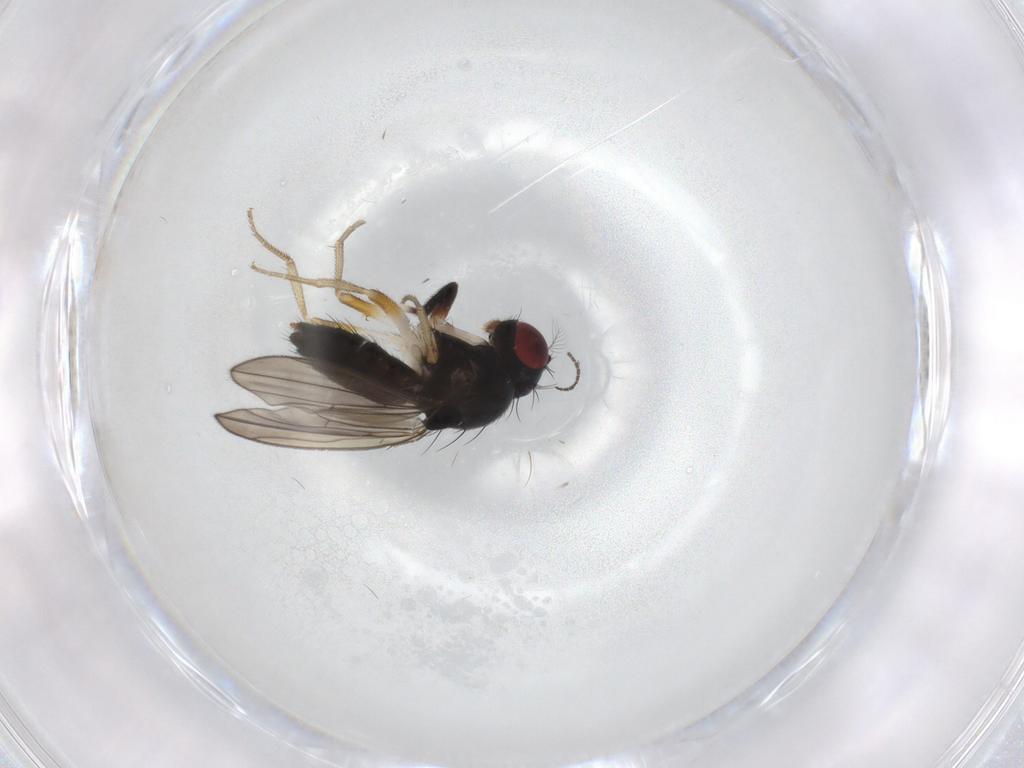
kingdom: Animalia
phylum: Arthropoda
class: Insecta
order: Diptera
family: Drosophilidae
